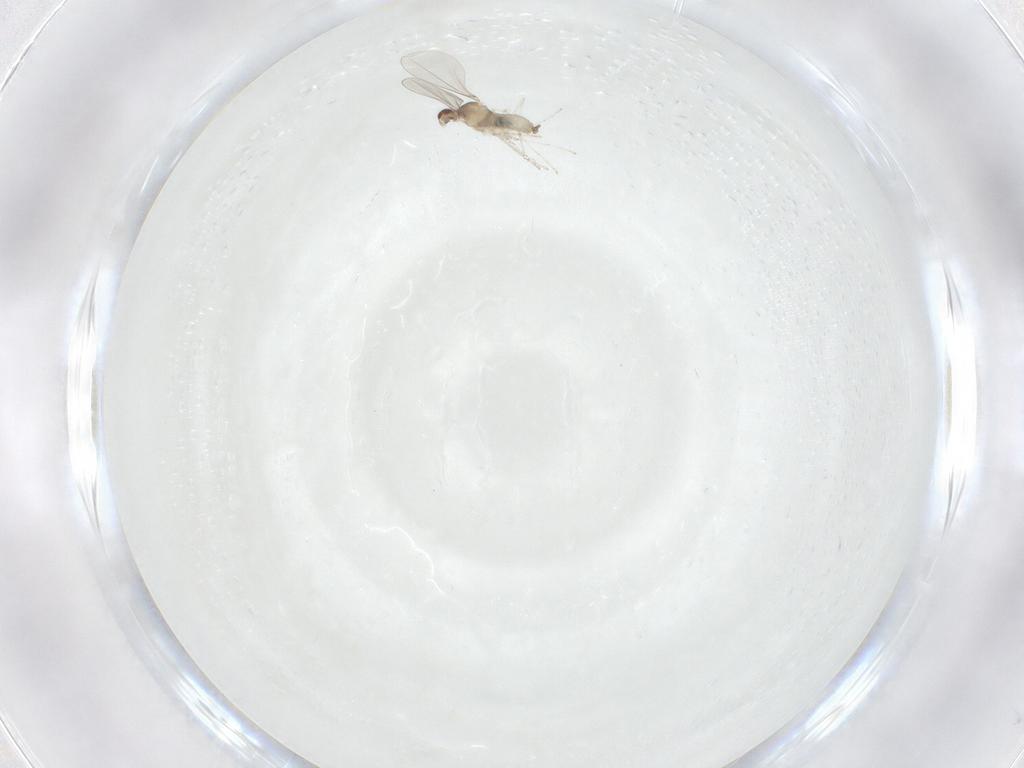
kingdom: Animalia
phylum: Arthropoda
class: Insecta
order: Diptera
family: Cecidomyiidae
